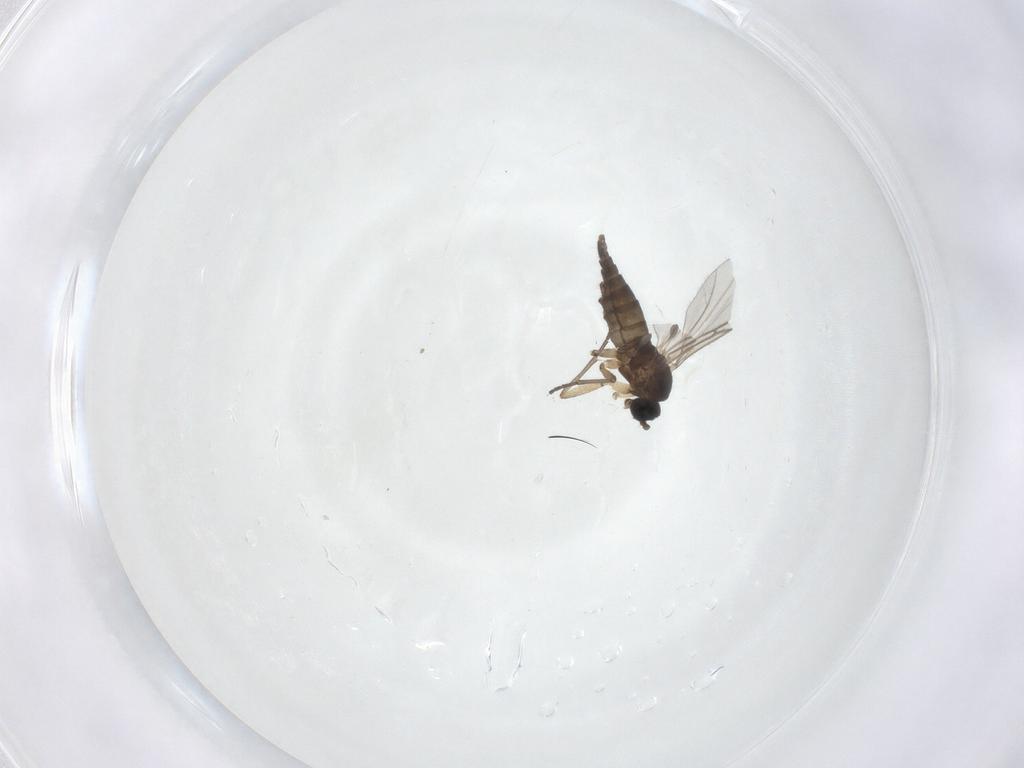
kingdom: Animalia
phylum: Arthropoda
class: Insecta
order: Diptera
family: Sciaridae
